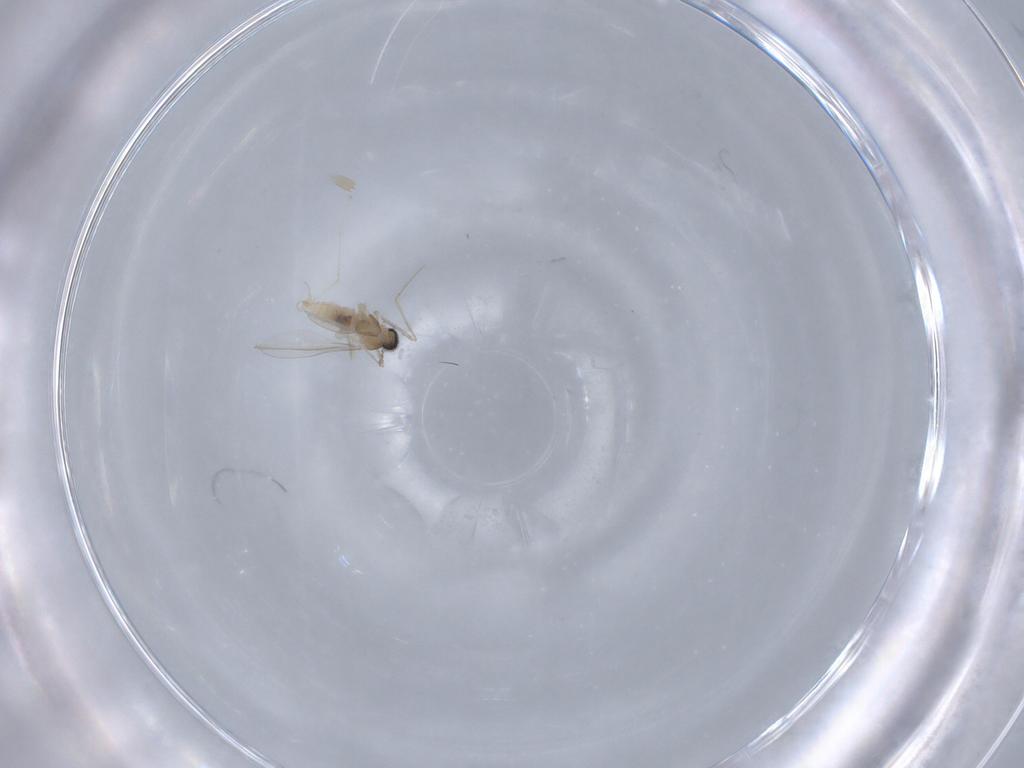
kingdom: Animalia
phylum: Arthropoda
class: Insecta
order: Diptera
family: Cecidomyiidae
